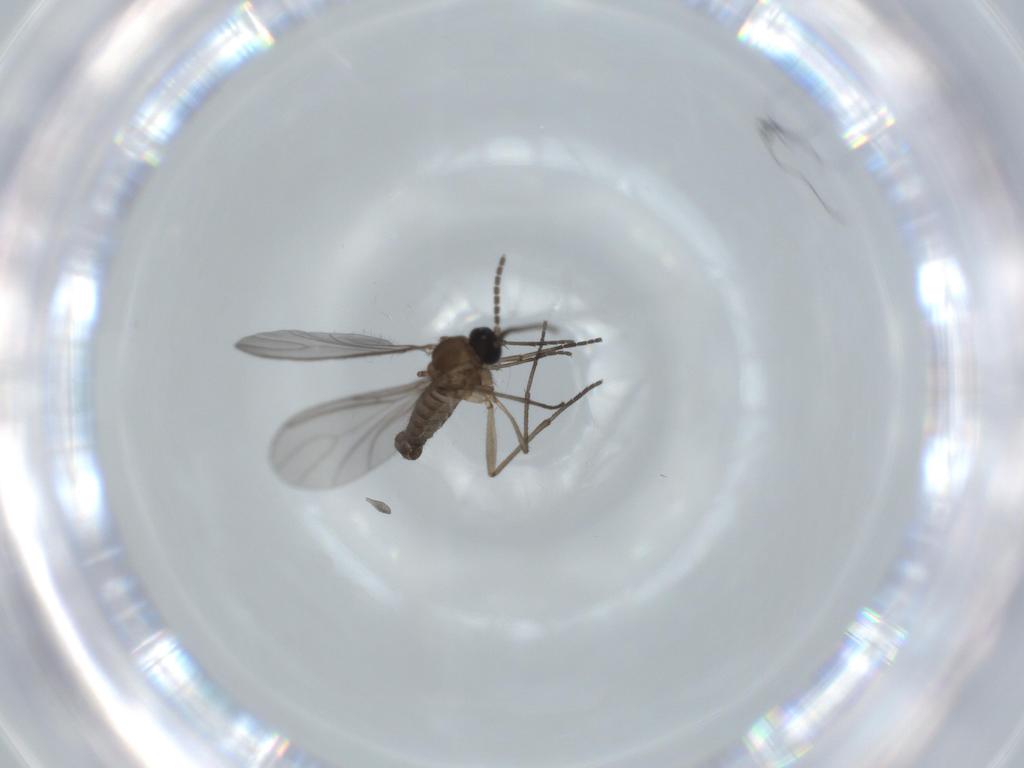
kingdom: Animalia
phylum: Arthropoda
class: Insecta
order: Diptera
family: Sciaridae
